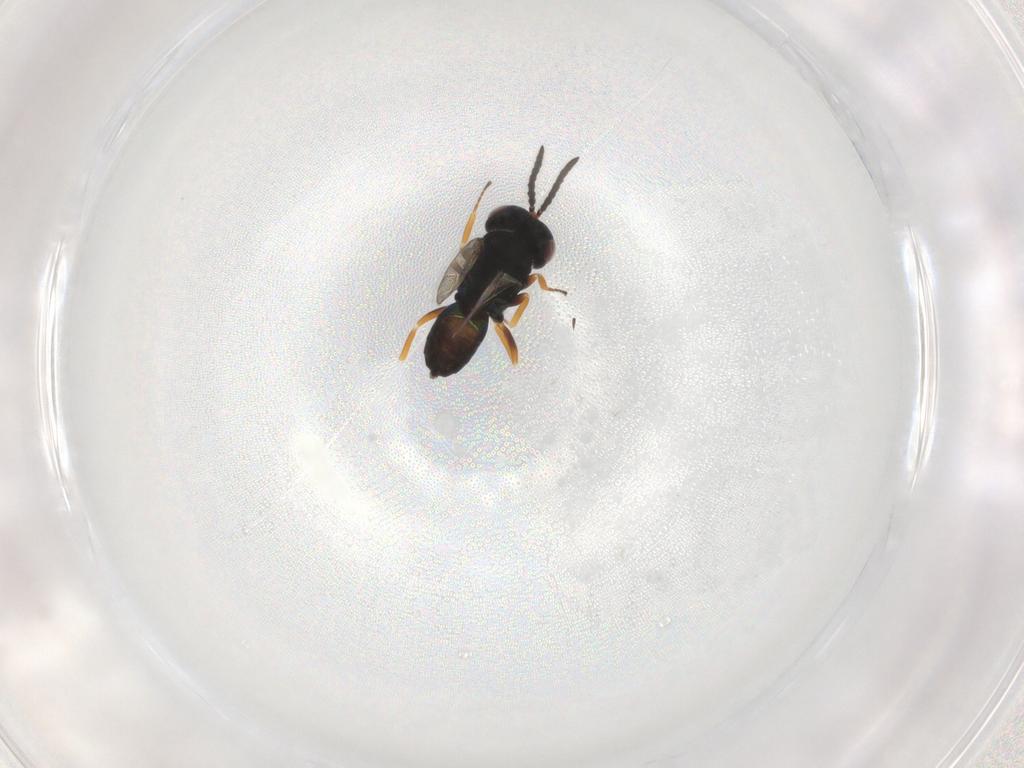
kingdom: Animalia
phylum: Arthropoda
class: Insecta
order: Hymenoptera
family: Pteromalidae
